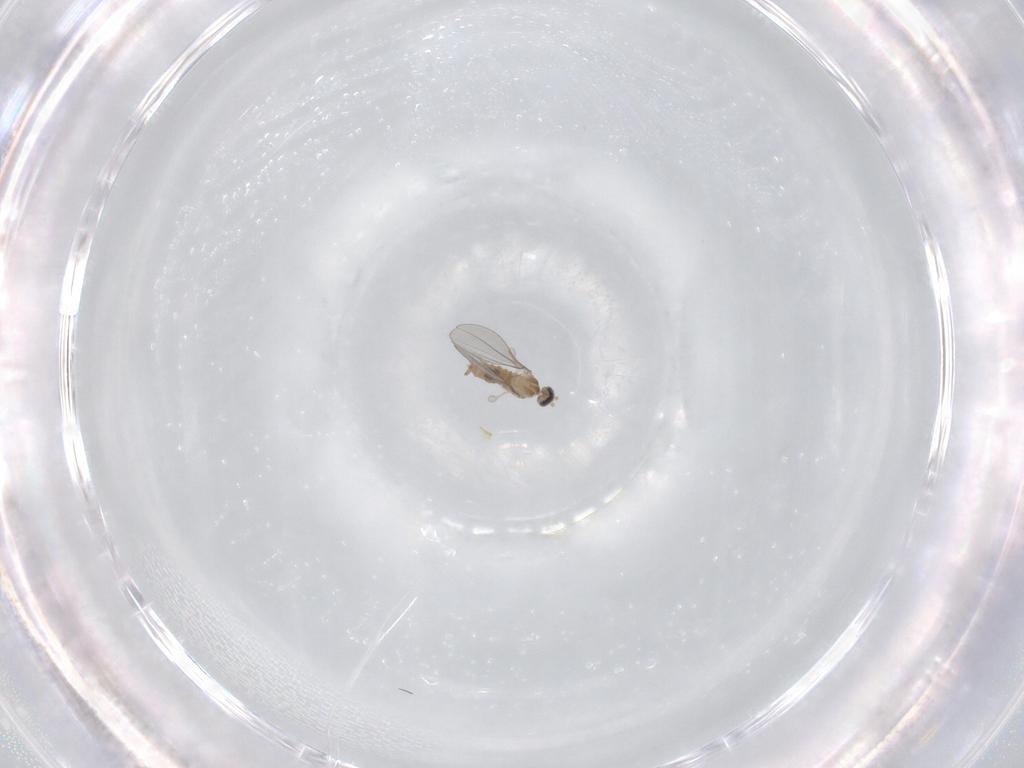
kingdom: Animalia
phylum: Arthropoda
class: Insecta
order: Diptera
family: Cecidomyiidae
